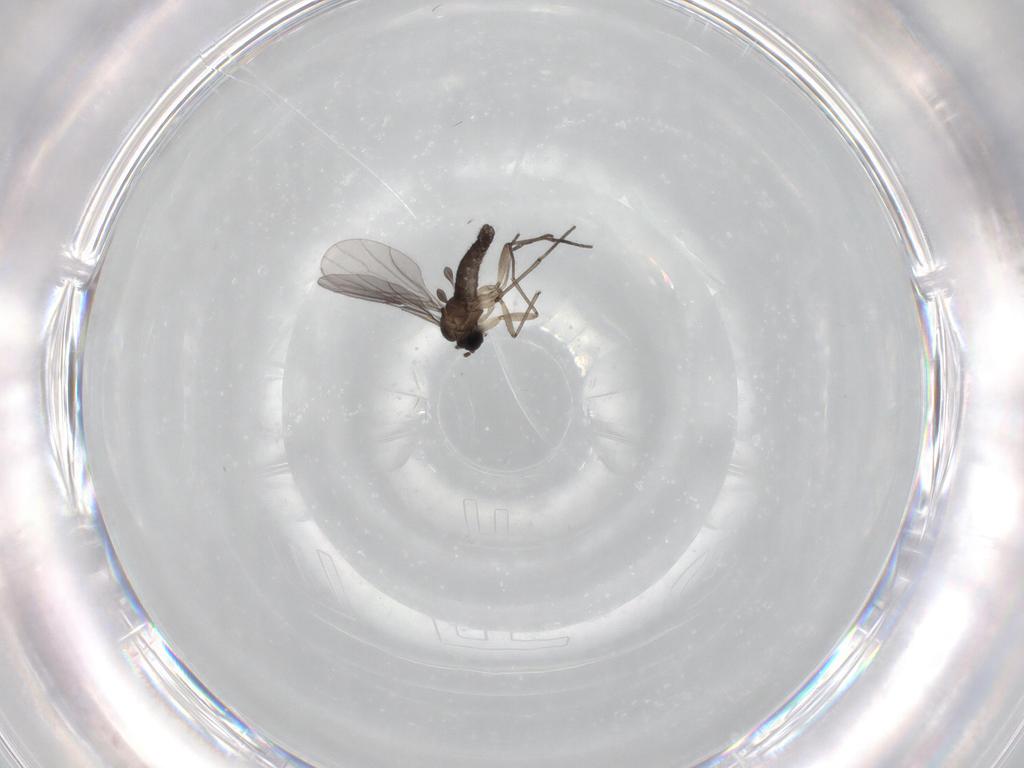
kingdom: Animalia
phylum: Arthropoda
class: Insecta
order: Diptera
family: Sciaridae
